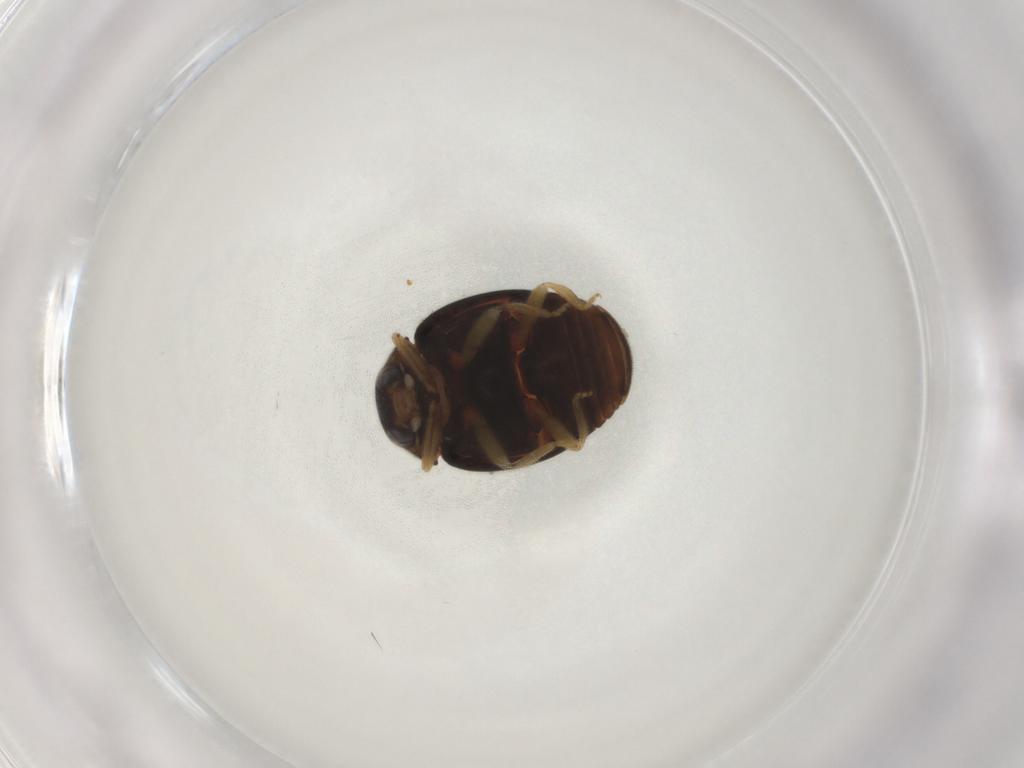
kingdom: Animalia
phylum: Arthropoda
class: Insecta
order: Coleoptera
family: Coccinellidae
